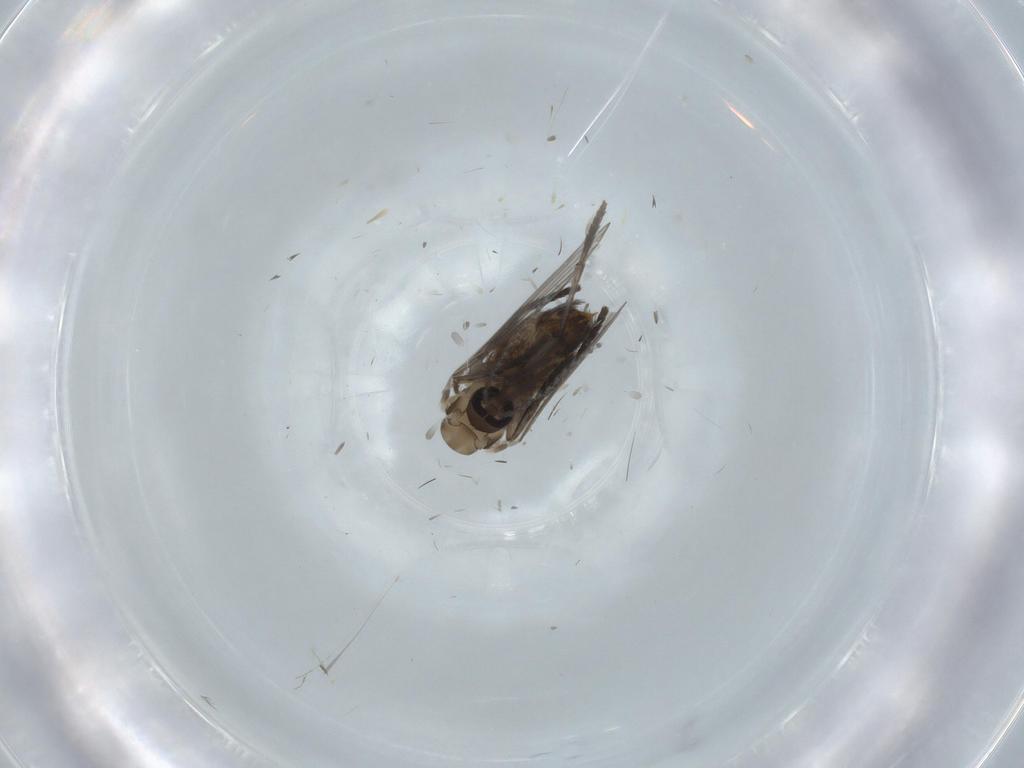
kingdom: Animalia
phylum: Arthropoda
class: Insecta
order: Diptera
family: Psychodidae
